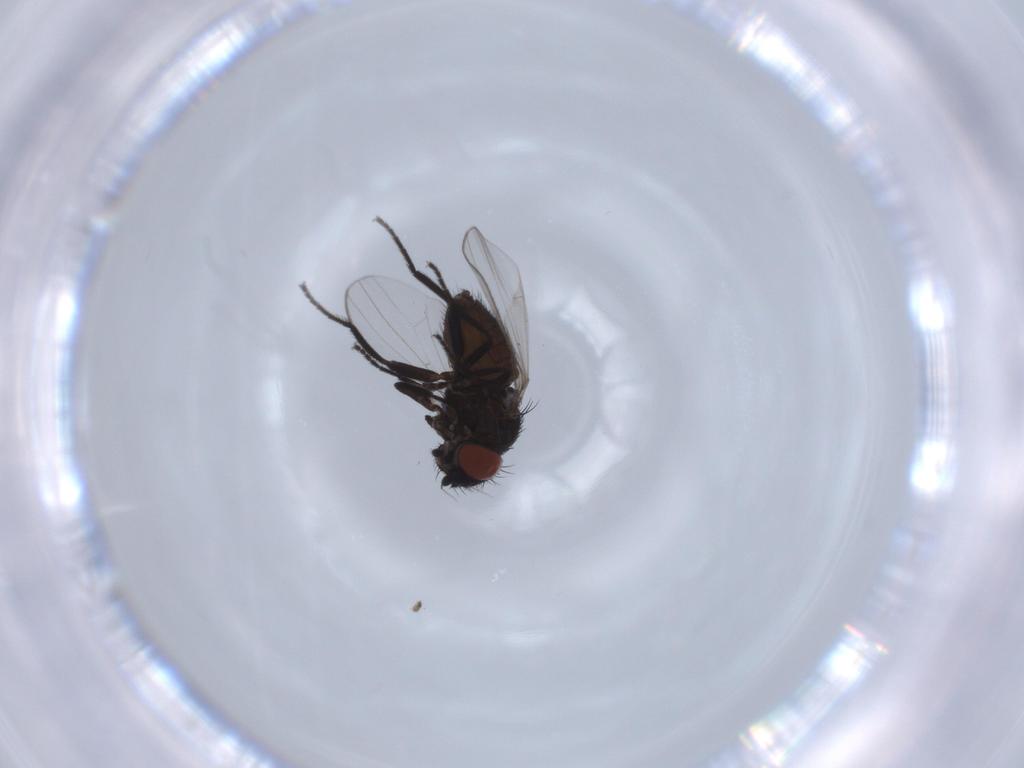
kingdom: Animalia
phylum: Arthropoda
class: Insecta
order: Diptera
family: Milichiidae
